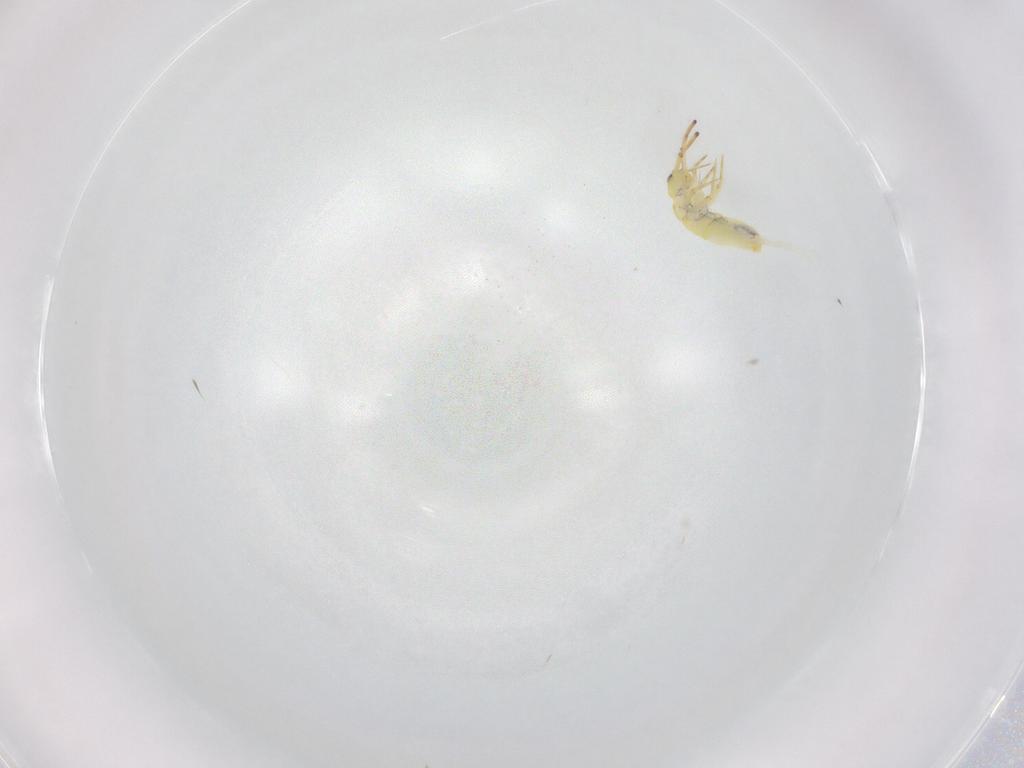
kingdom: Animalia
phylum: Arthropoda
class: Collembola
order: Entomobryomorpha
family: Entomobryidae
